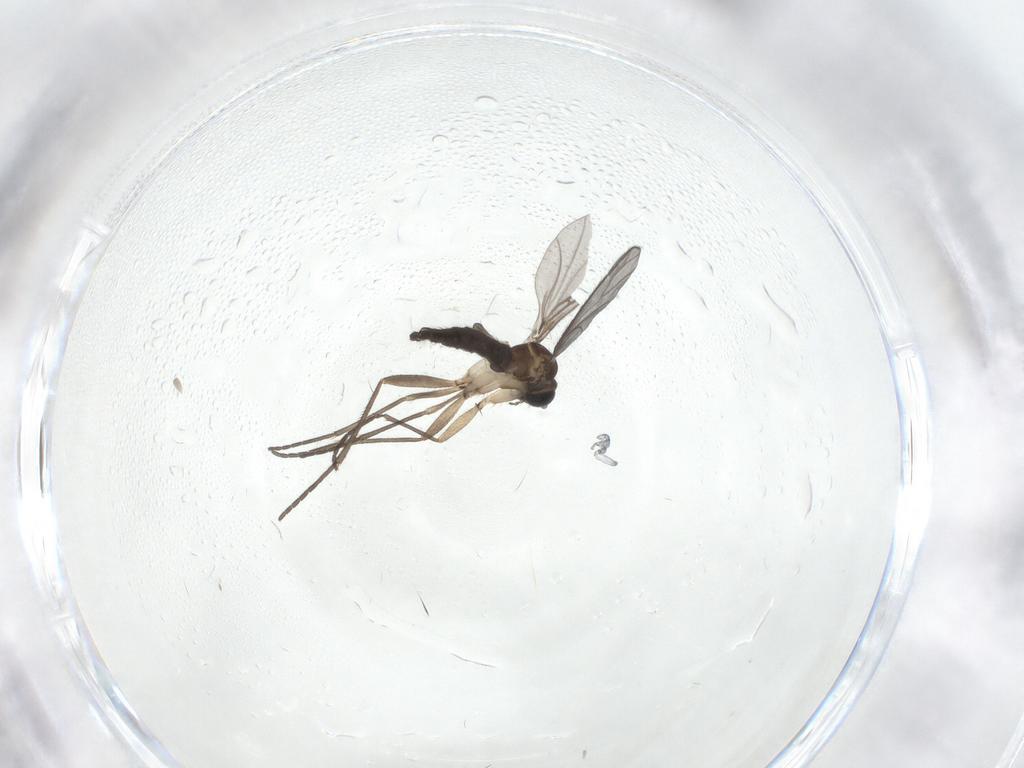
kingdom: Animalia
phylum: Arthropoda
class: Insecta
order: Diptera
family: Sciaridae
